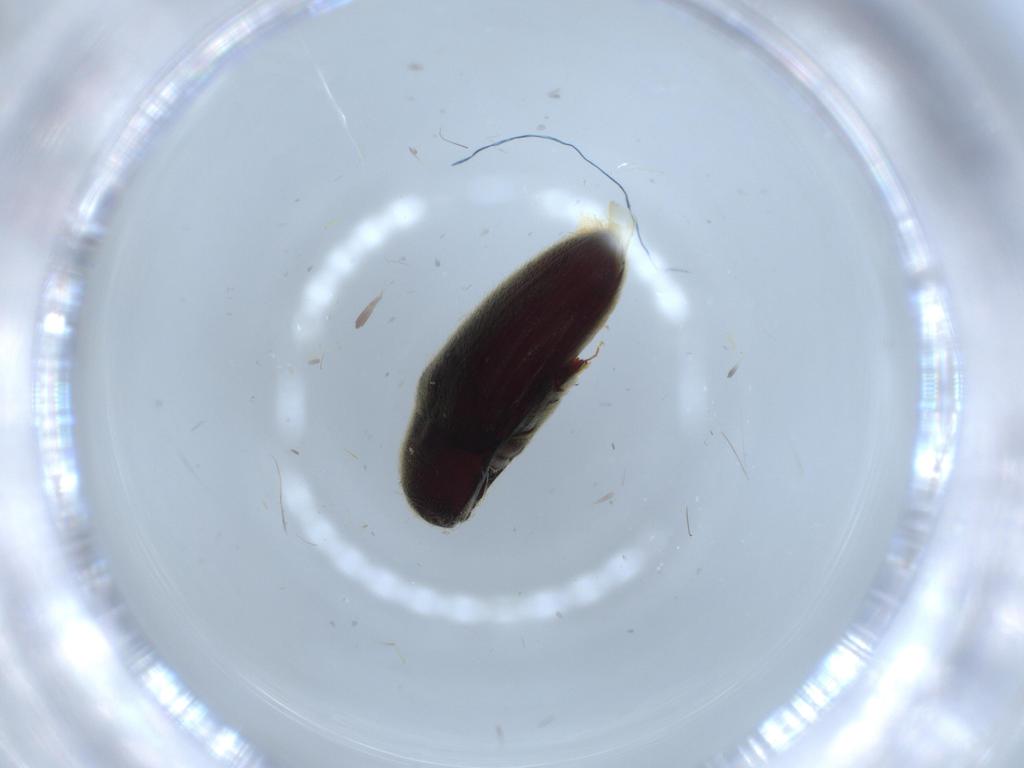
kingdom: Animalia
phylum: Arthropoda
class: Insecta
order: Coleoptera
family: Throscidae
